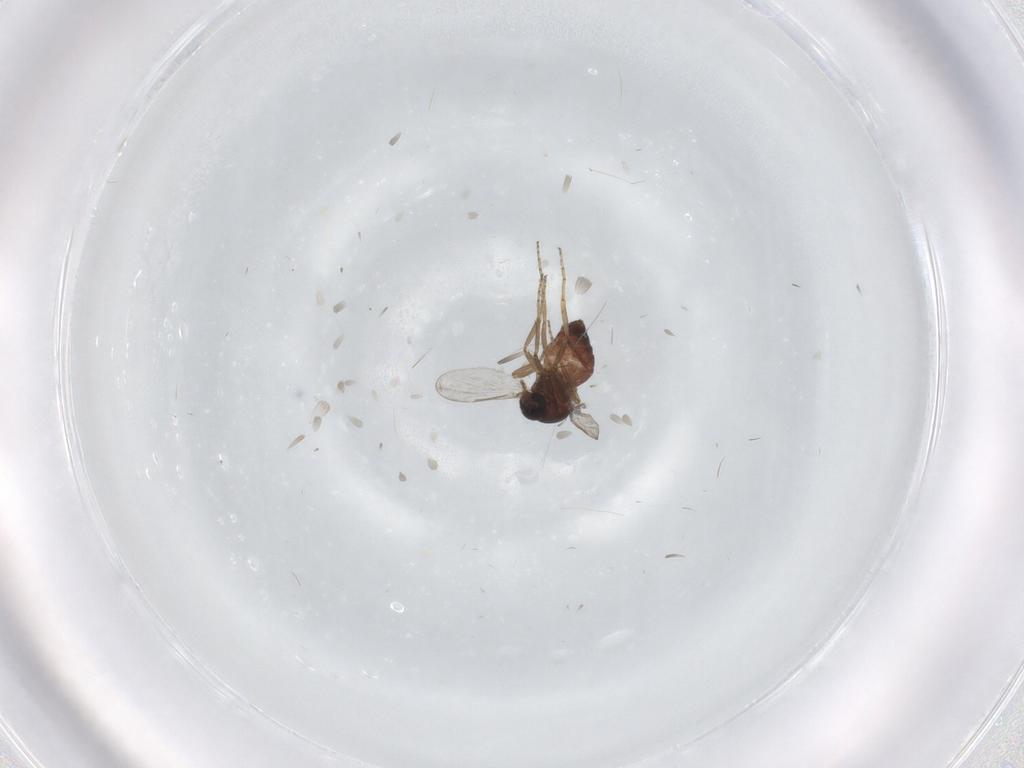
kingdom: Animalia
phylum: Arthropoda
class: Insecta
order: Diptera
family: Ceratopogonidae
